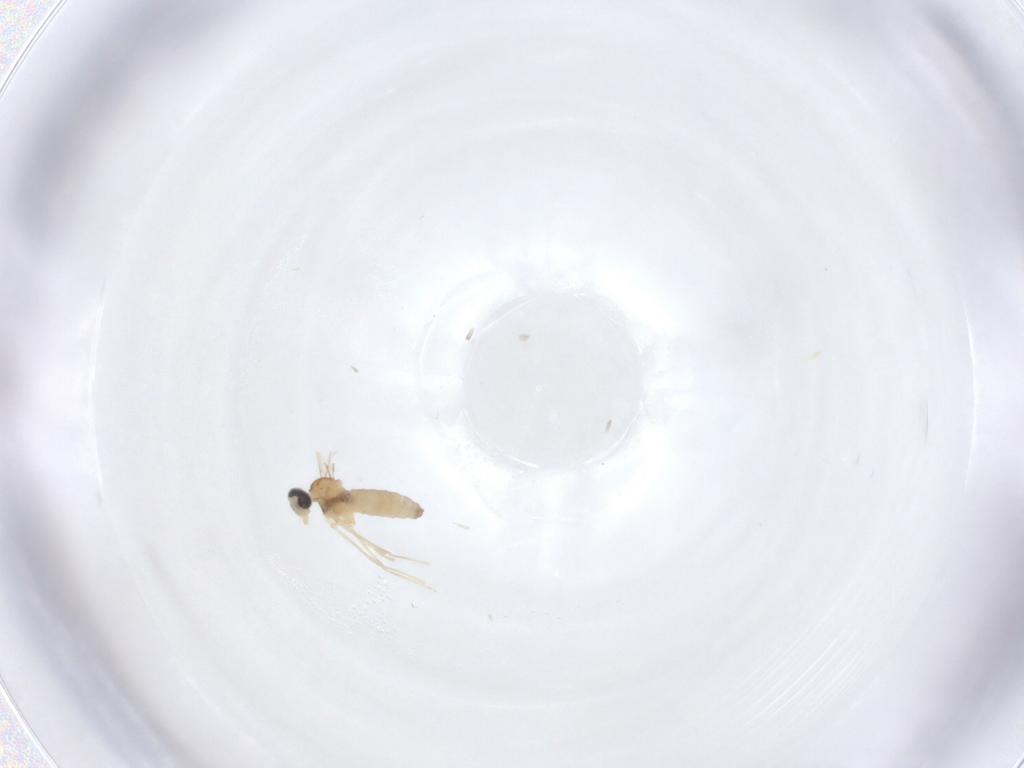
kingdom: Animalia
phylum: Arthropoda
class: Insecta
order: Diptera
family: Cecidomyiidae
